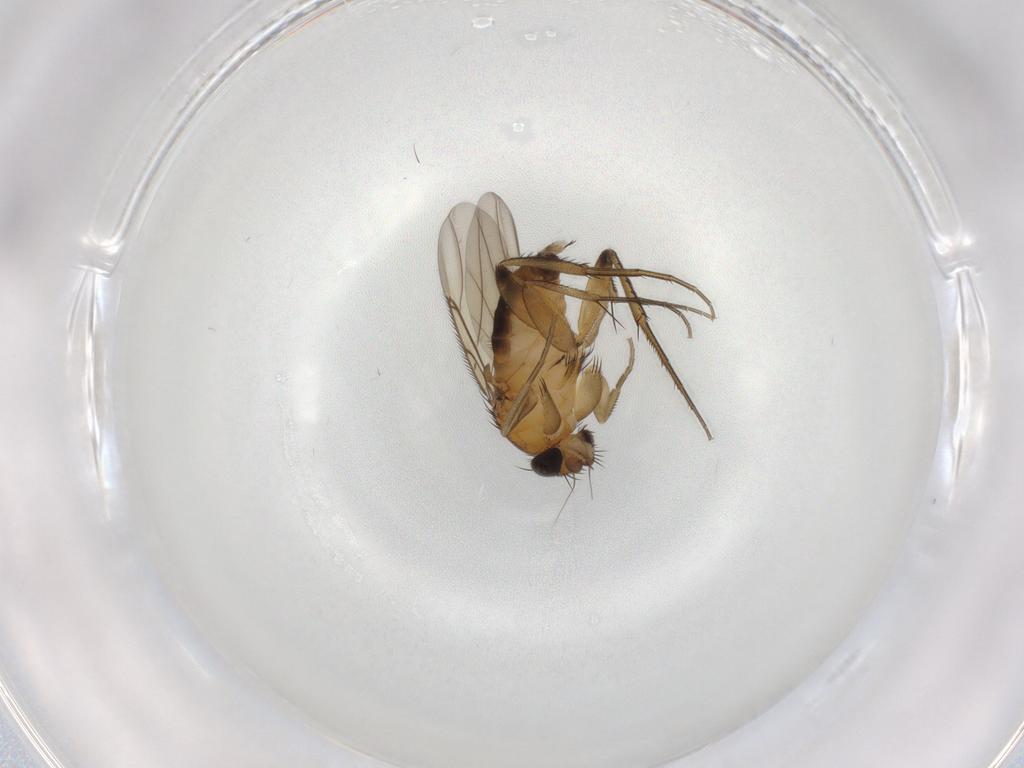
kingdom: Animalia
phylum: Arthropoda
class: Insecta
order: Diptera
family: Phoridae
